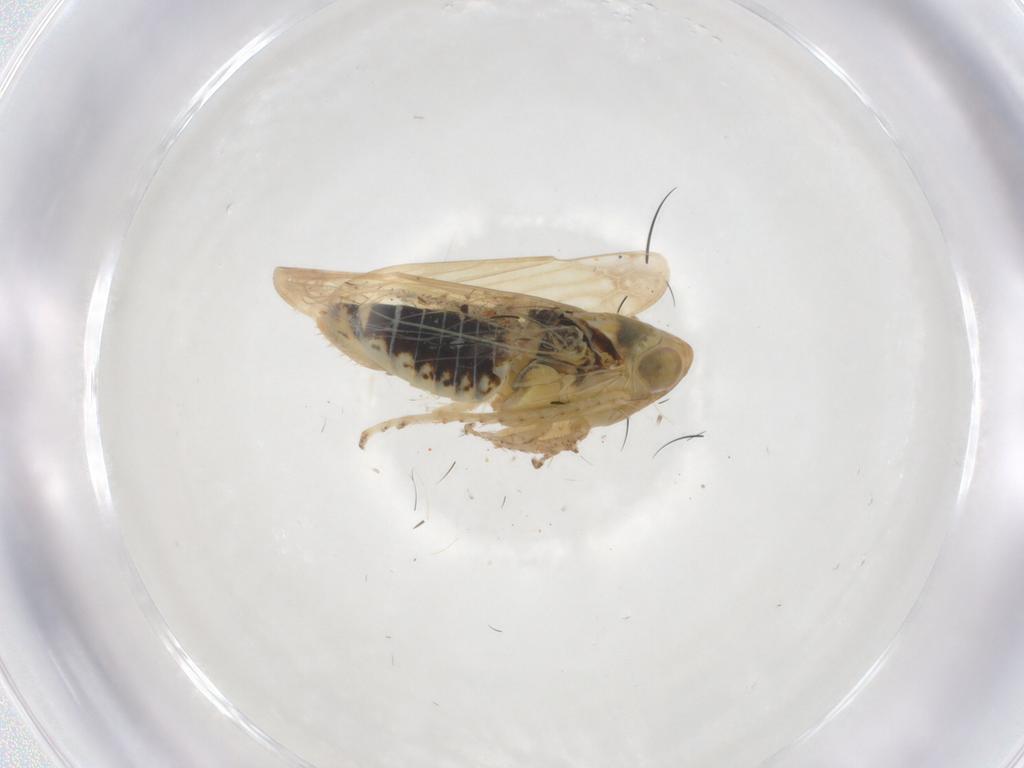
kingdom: Animalia
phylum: Arthropoda
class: Insecta
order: Hemiptera
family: Cicadellidae
